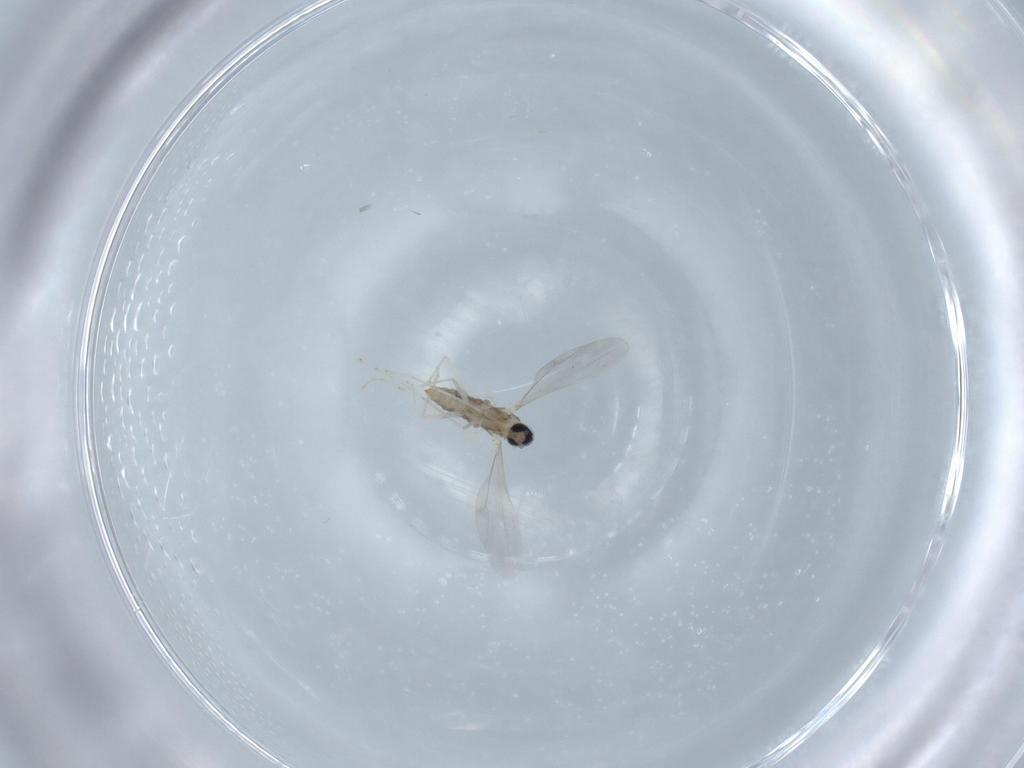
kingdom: Animalia
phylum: Arthropoda
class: Insecta
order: Diptera
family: Cecidomyiidae
